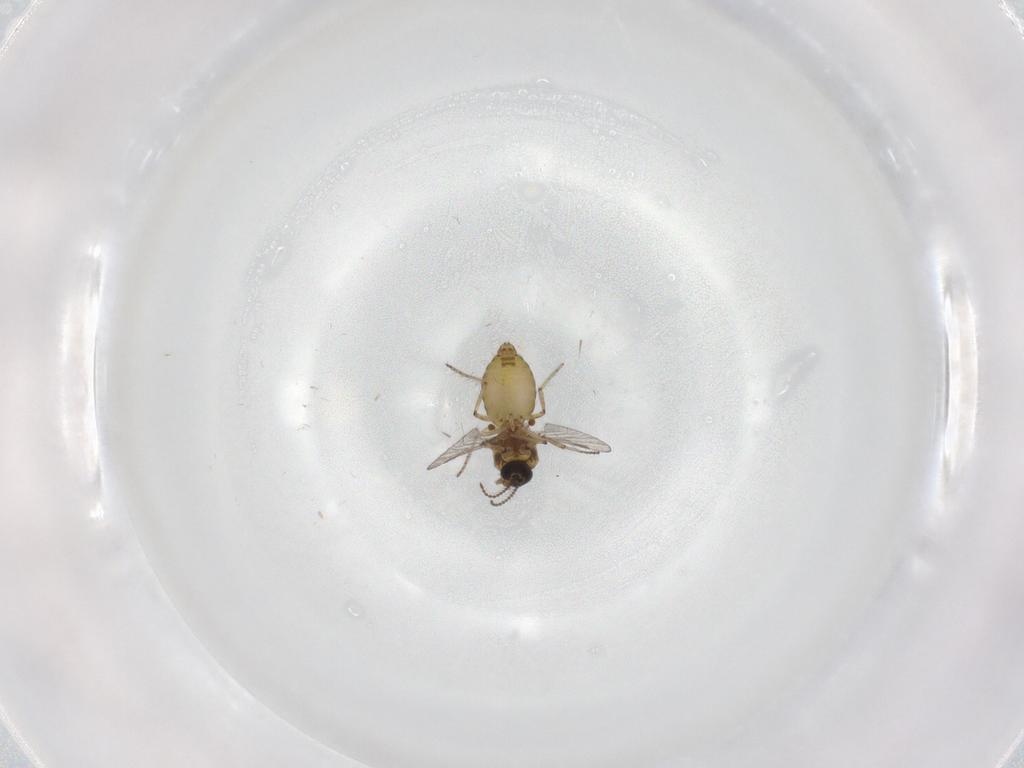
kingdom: Animalia
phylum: Arthropoda
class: Insecta
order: Diptera
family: Ceratopogonidae
